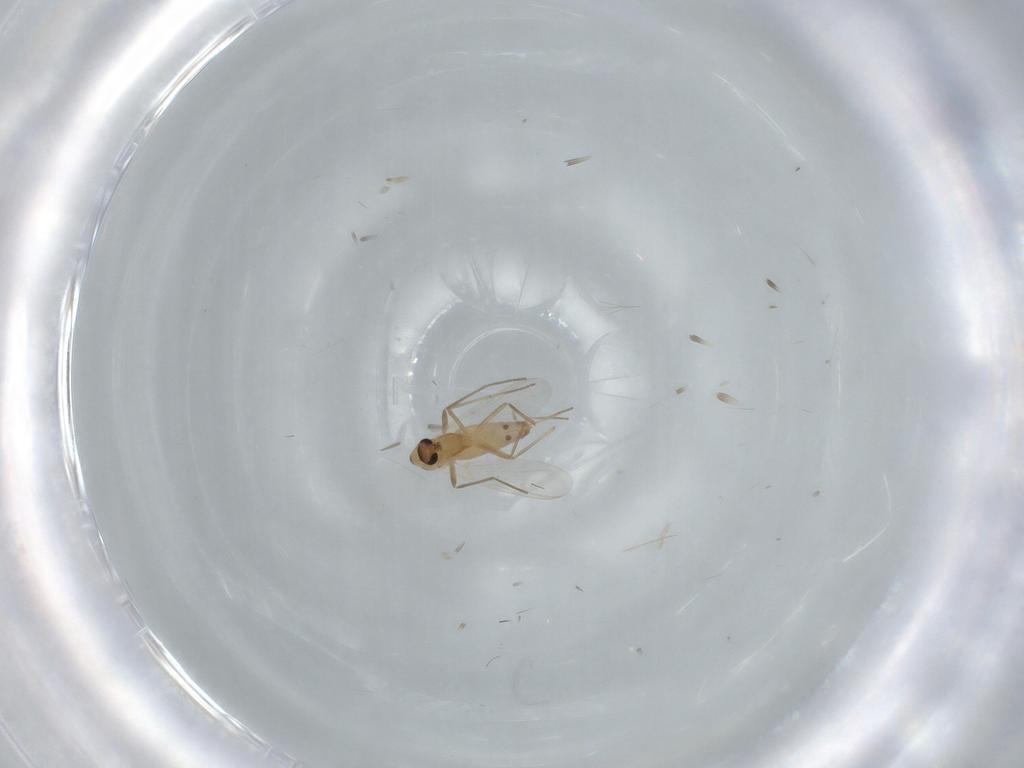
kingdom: Animalia
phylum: Arthropoda
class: Insecta
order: Diptera
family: Chironomidae
